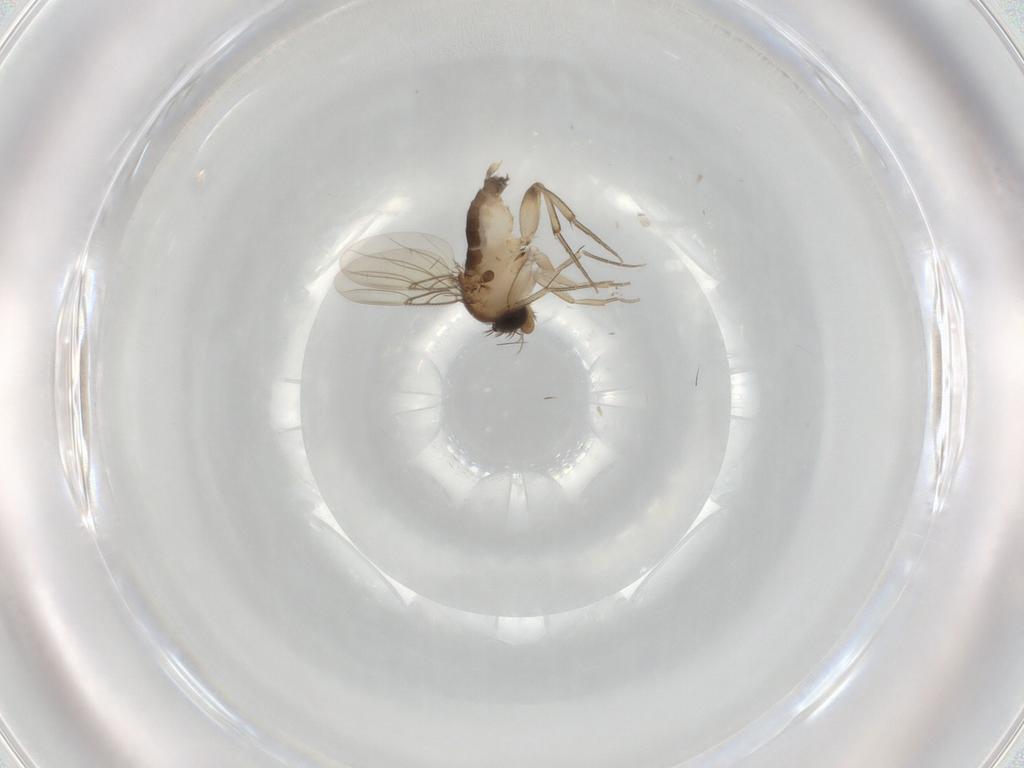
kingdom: Animalia
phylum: Arthropoda
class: Insecta
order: Diptera
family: Phoridae
